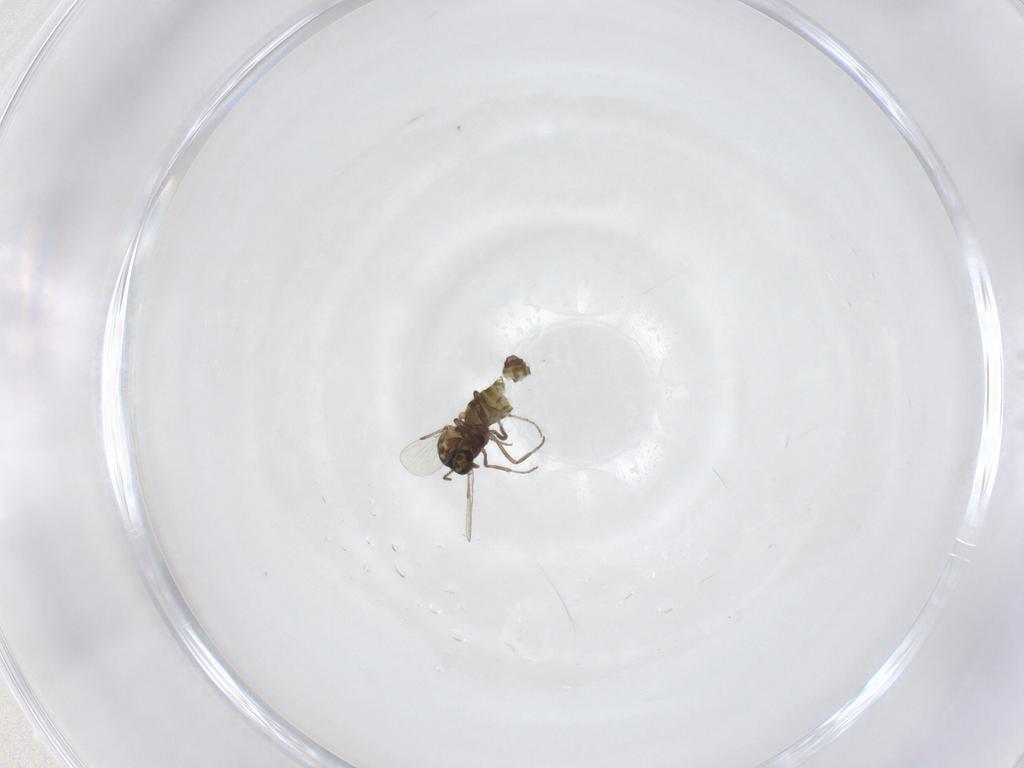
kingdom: Animalia
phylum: Arthropoda
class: Insecta
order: Diptera
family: Ceratopogonidae
